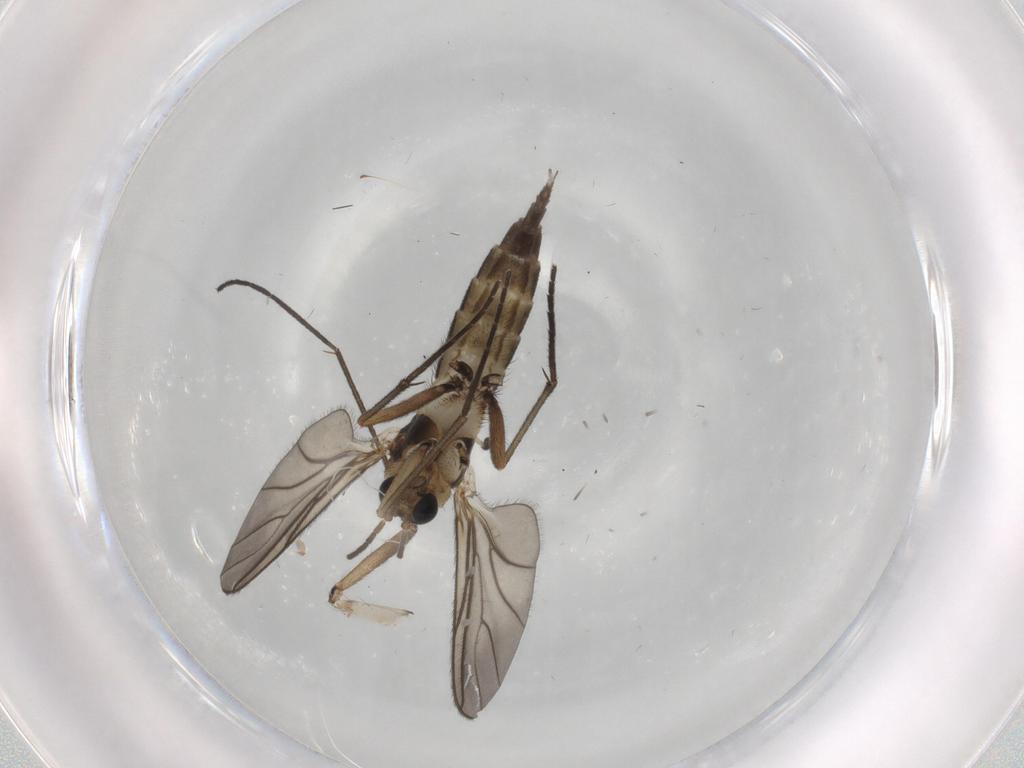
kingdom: Animalia
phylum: Arthropoda
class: Insecta
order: Diptera
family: Sciaridae
